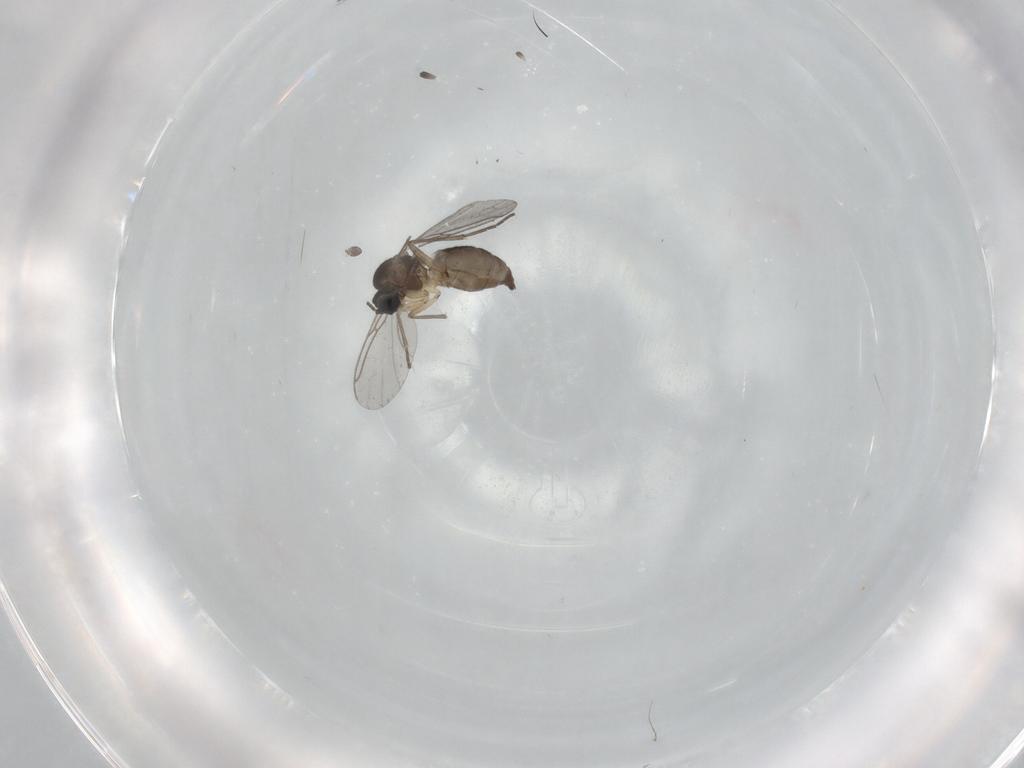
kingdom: Animalia
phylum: Arthropoda
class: Insecta
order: Diptera
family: Sciaridae
